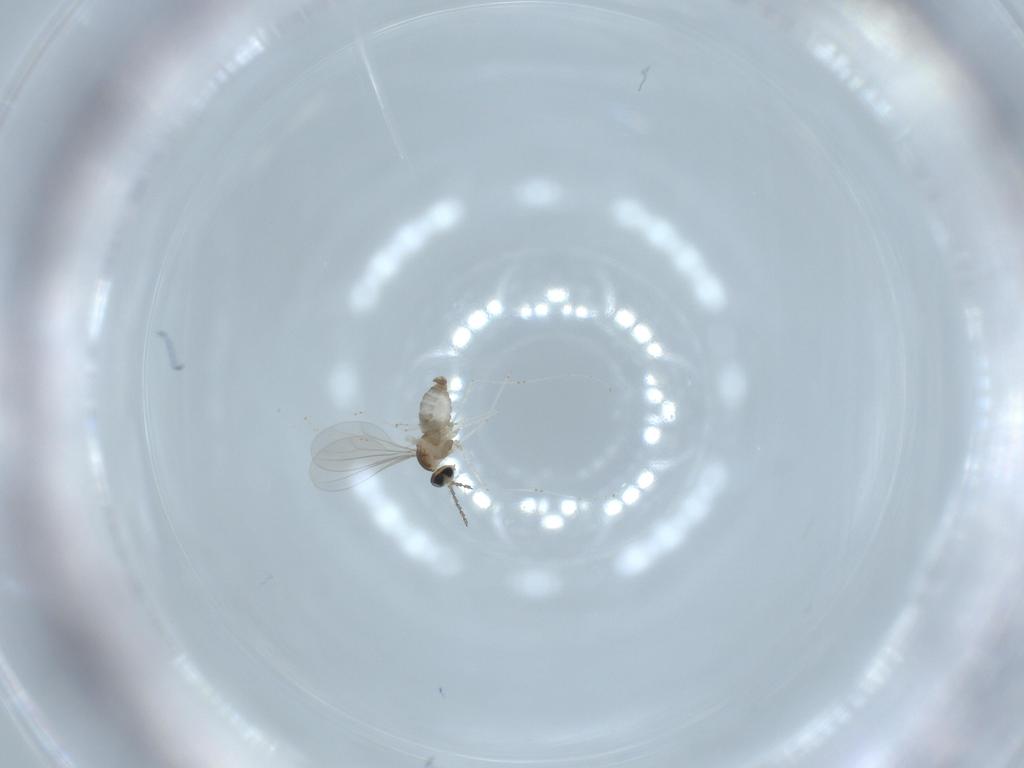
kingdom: Animalia
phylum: Arthropoda
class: Insecta
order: Diptera
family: Cecidomyiidae
